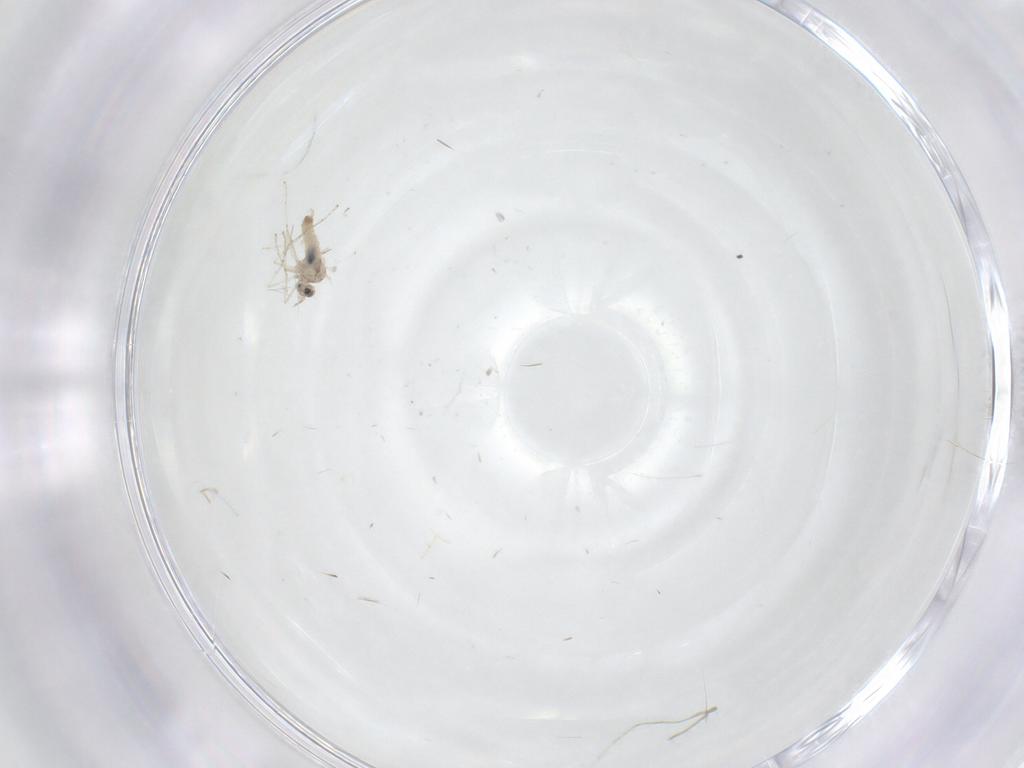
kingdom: Animalia
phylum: Arthropoda
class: Insecta
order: Diptera
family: Cecidomyiidae
